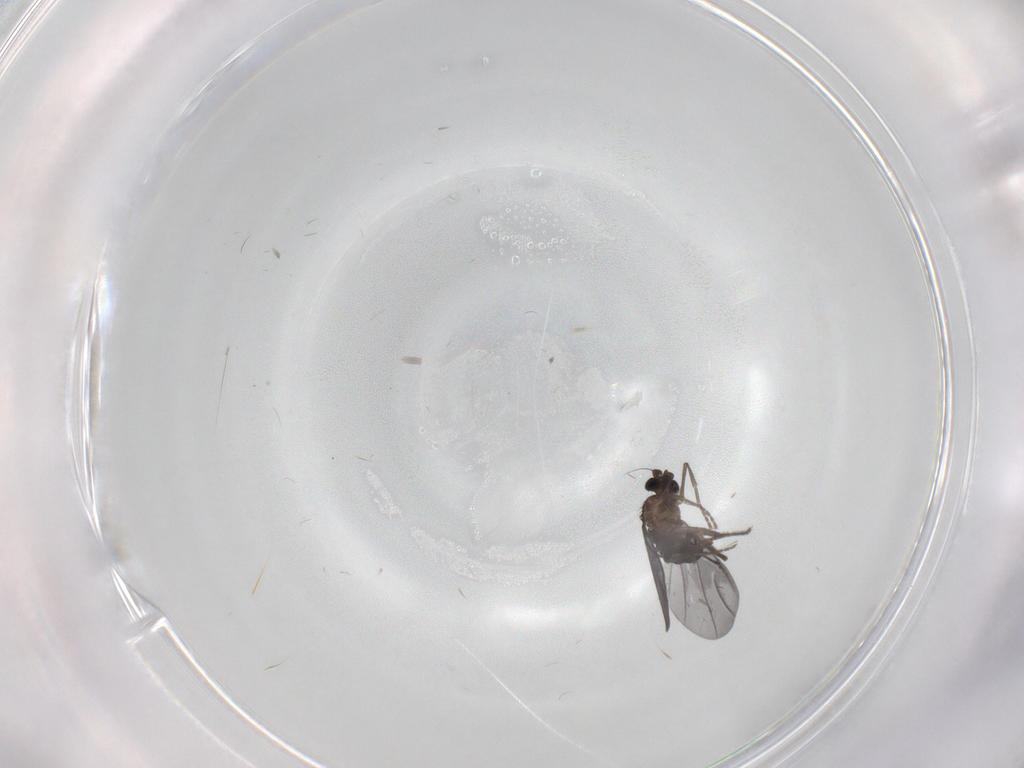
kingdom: Animalia
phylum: Arthropoda
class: Insecta
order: Diptera
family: Phoridae
